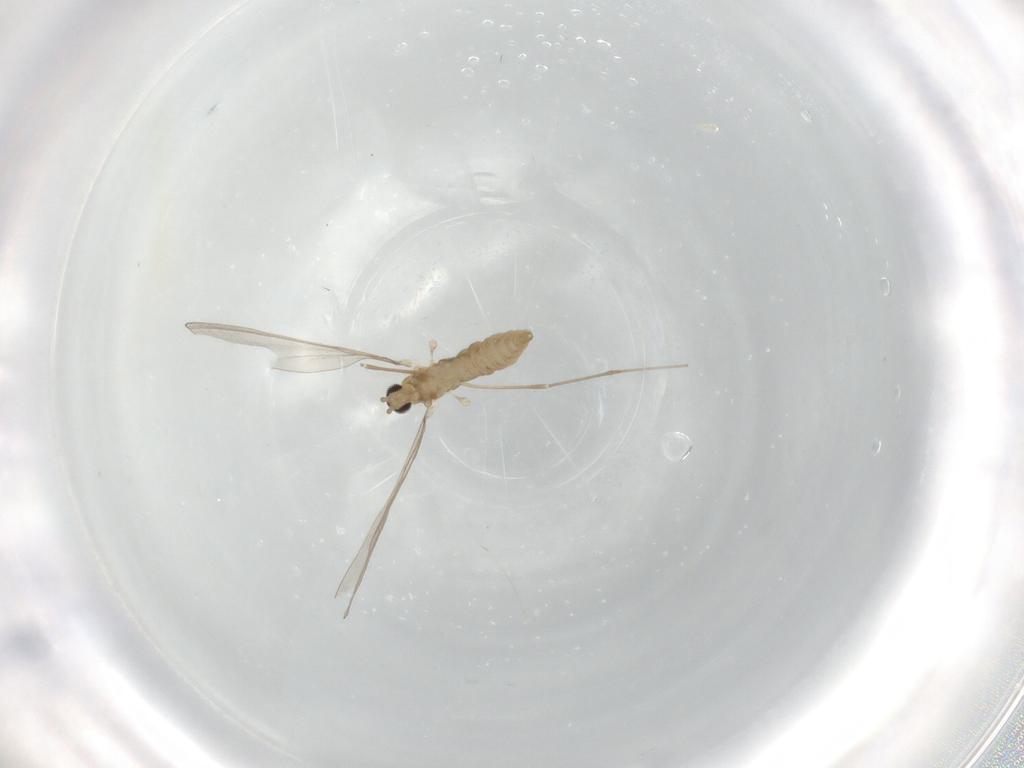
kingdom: Animalia
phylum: Arthropoda
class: Insecta
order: Diptera
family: Cecidomyiidae
